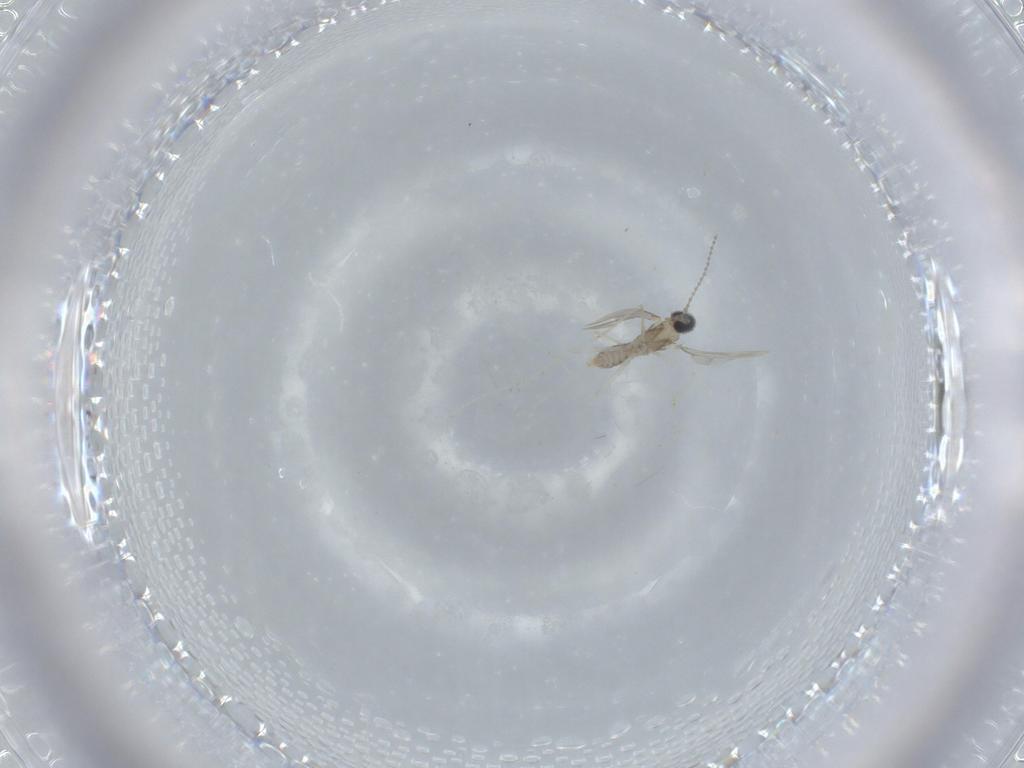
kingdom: Animalia
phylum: Arthropoda
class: Insecta
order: Diptera
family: Cecidomyiidae
